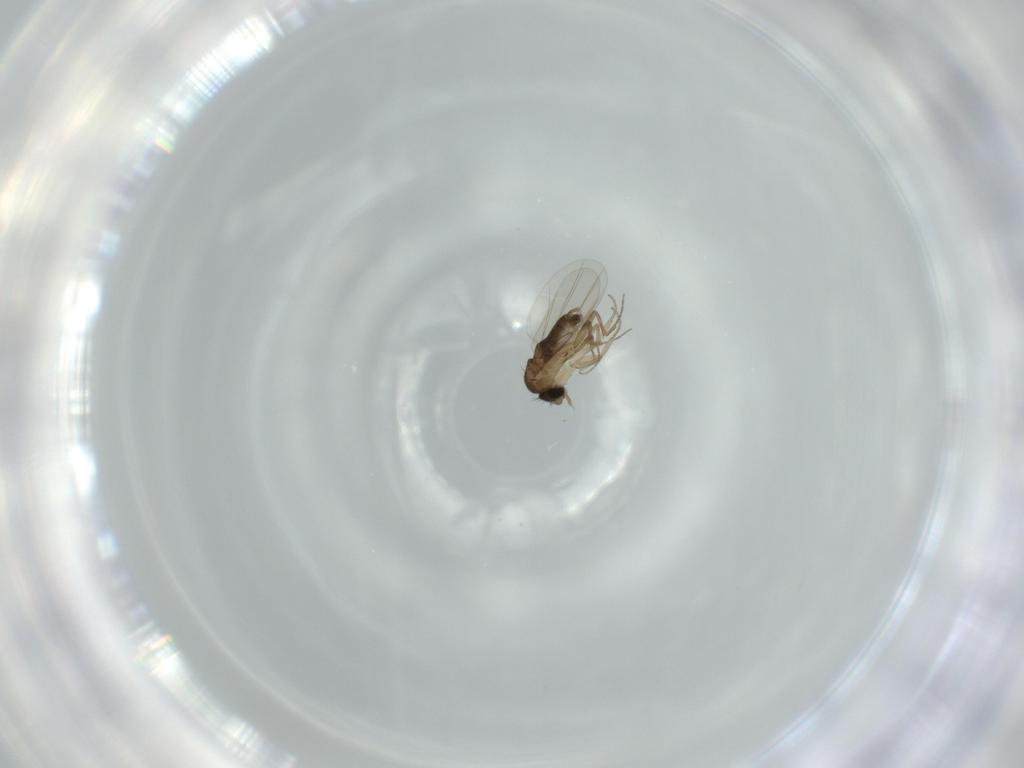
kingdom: Animalia
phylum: Arthropoda
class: Insecta
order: Diptera
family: Phoridae
